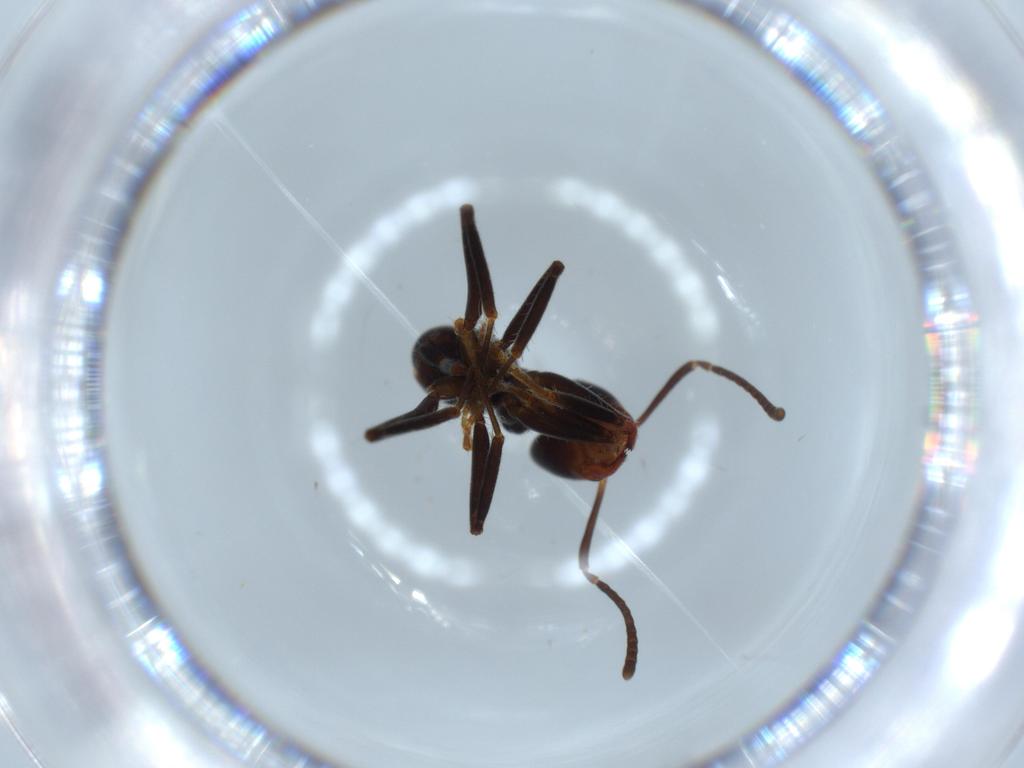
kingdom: Animalia
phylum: Arthropoda
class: Insecta
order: Hymenoptera
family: Formicidae
